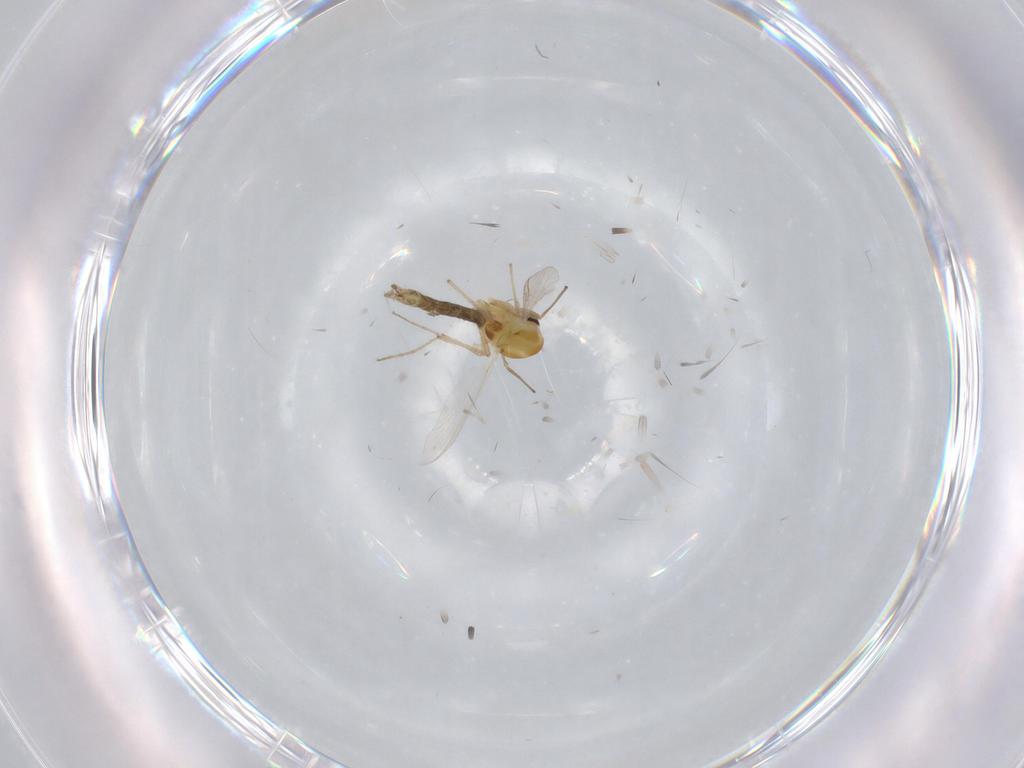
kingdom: Animalia
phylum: Arthropoda
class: Insecta
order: Diptera
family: Chironomidae
